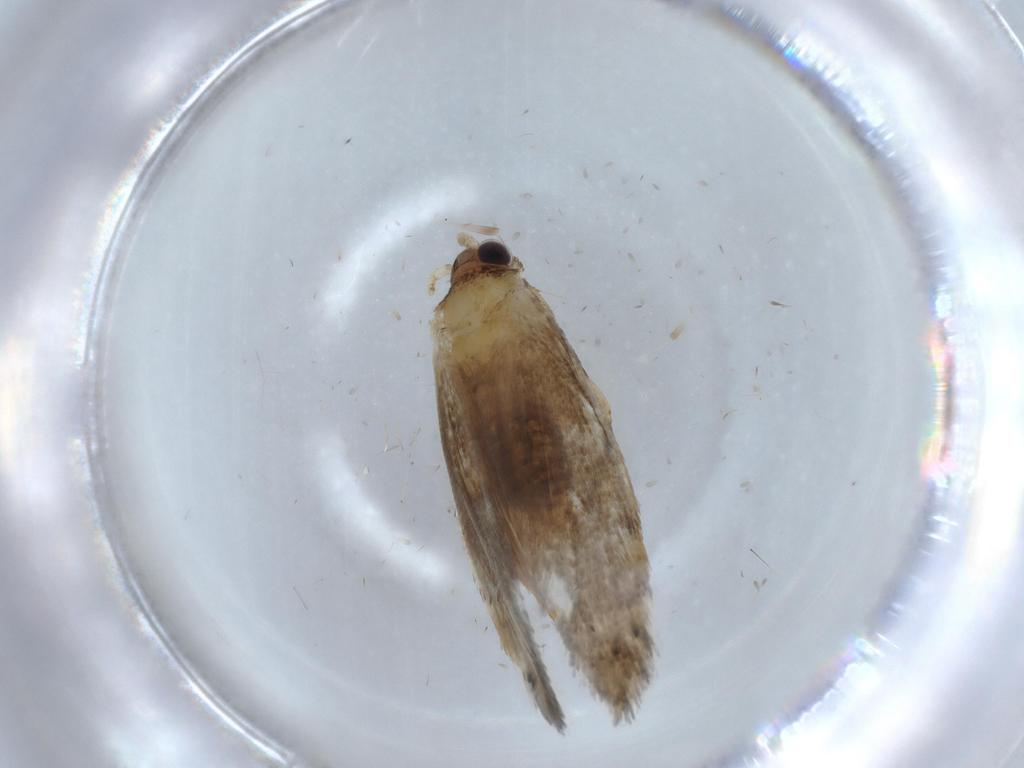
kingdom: Animalia
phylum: Arthropoda
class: Insecta
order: Lepidoptera
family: Tineidae
